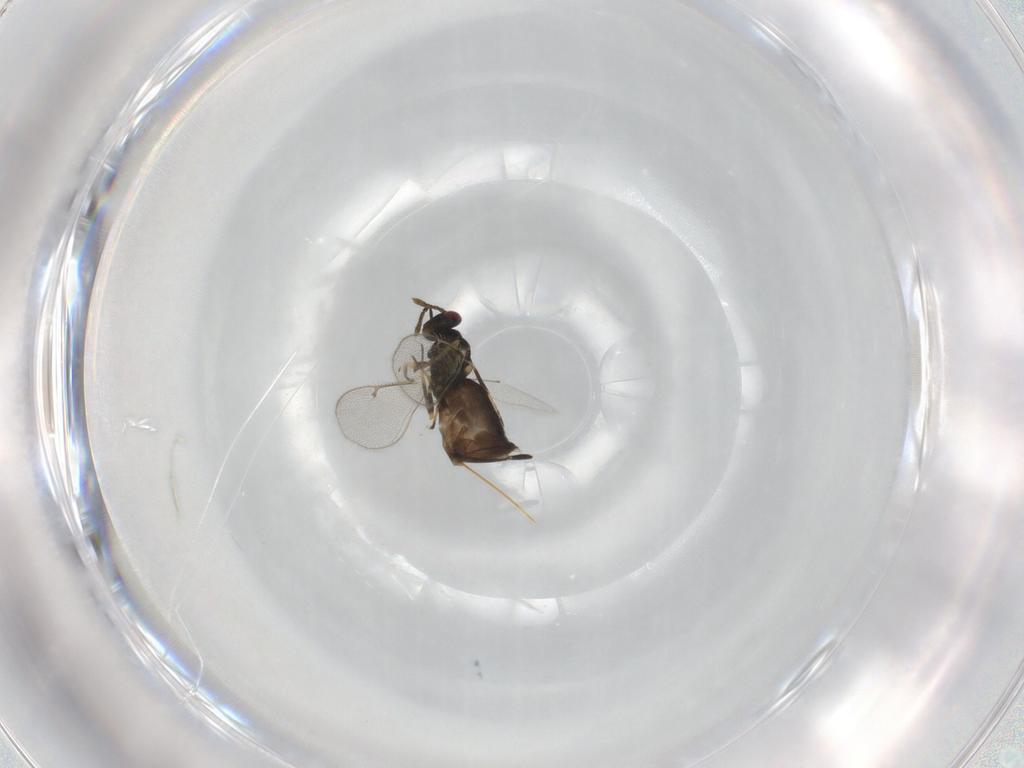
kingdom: Animalia
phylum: Arthropoda
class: Insecta
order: Hymenoptera
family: Eulophidae
